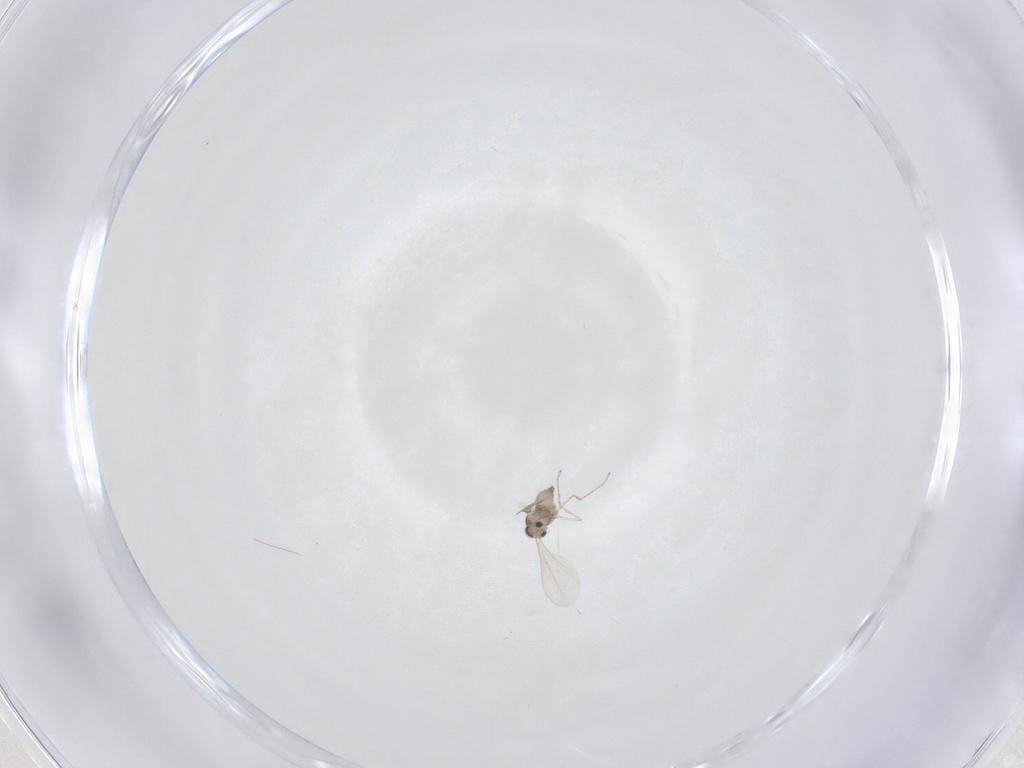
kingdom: Animalia
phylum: Arthropoda
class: Insecta
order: Diptera
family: Cecidomyiidae
